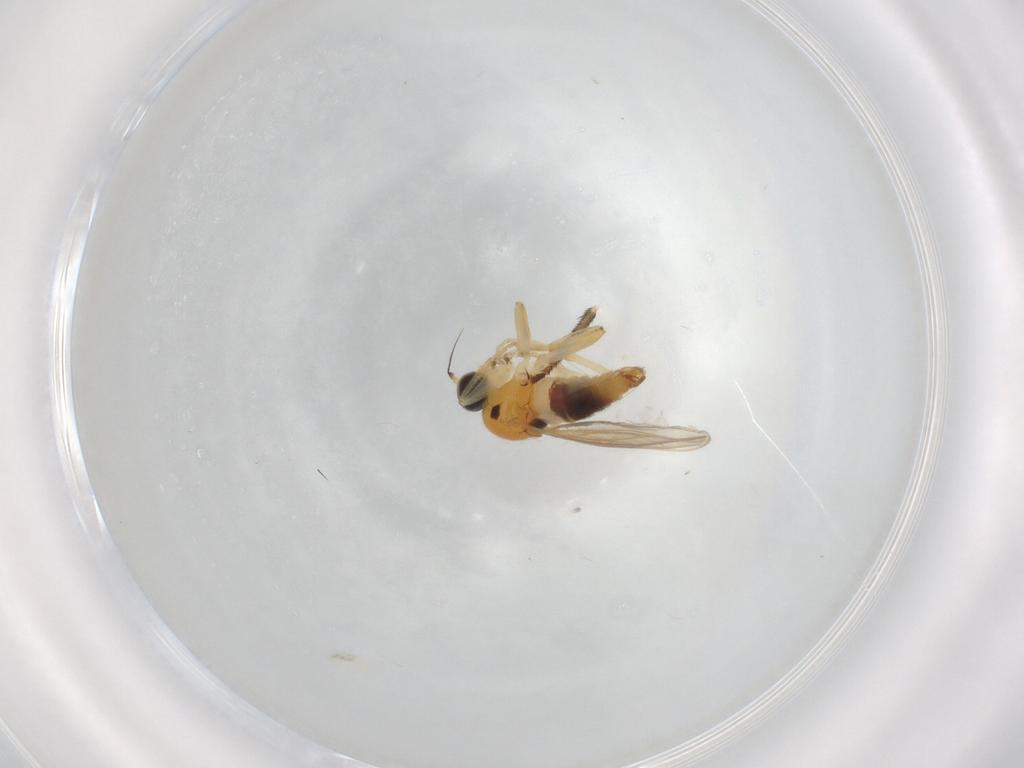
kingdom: Animalia
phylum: Arthropoda
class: Insecta
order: Diptera
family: Hybotidae
